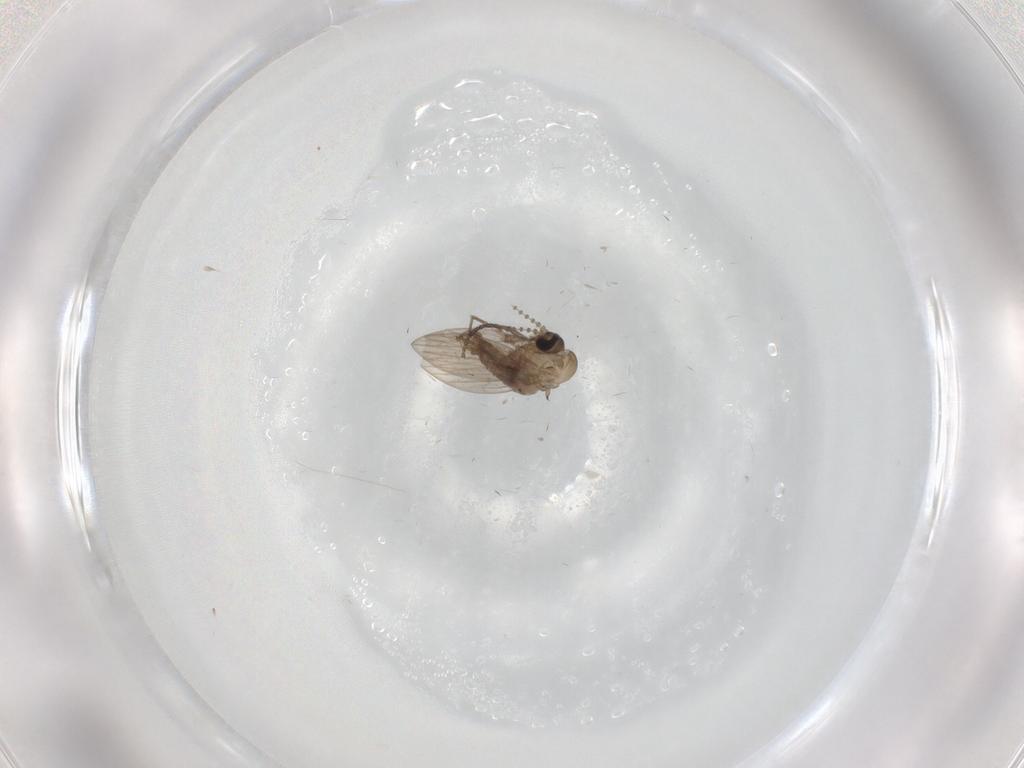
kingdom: Animalia
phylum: Arthropoda
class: Insecta
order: Diptera
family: Sciaridae
